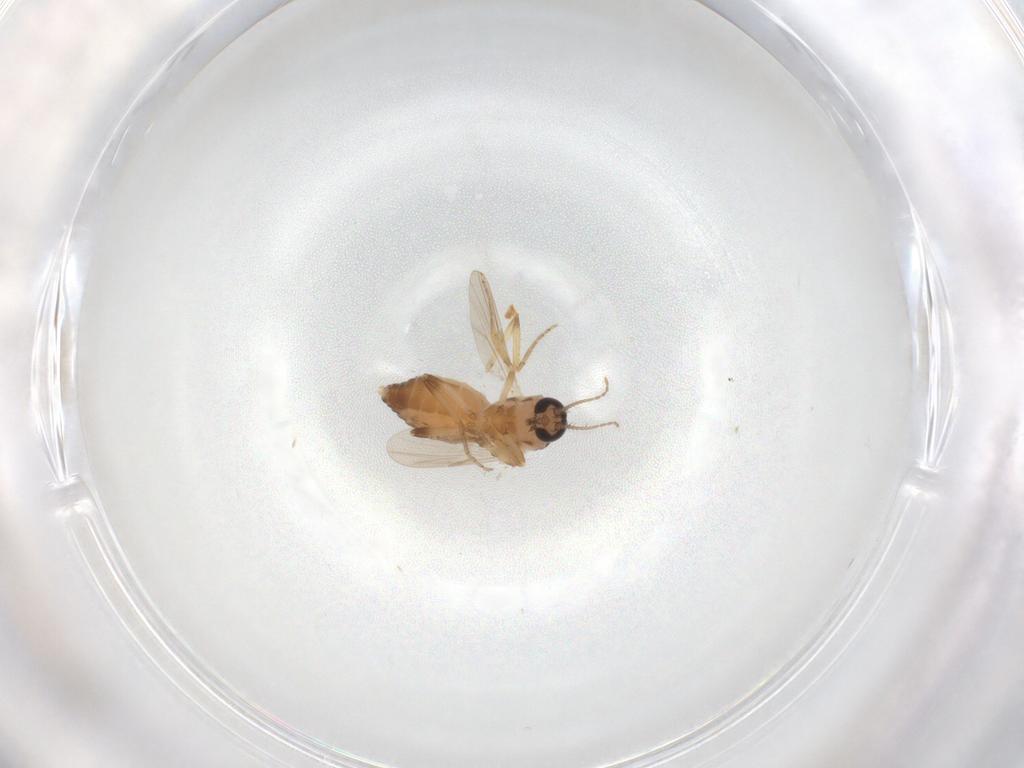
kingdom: Animalia
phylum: Arthropoda
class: Insecta
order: Diptera
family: Ceratopogonidae
